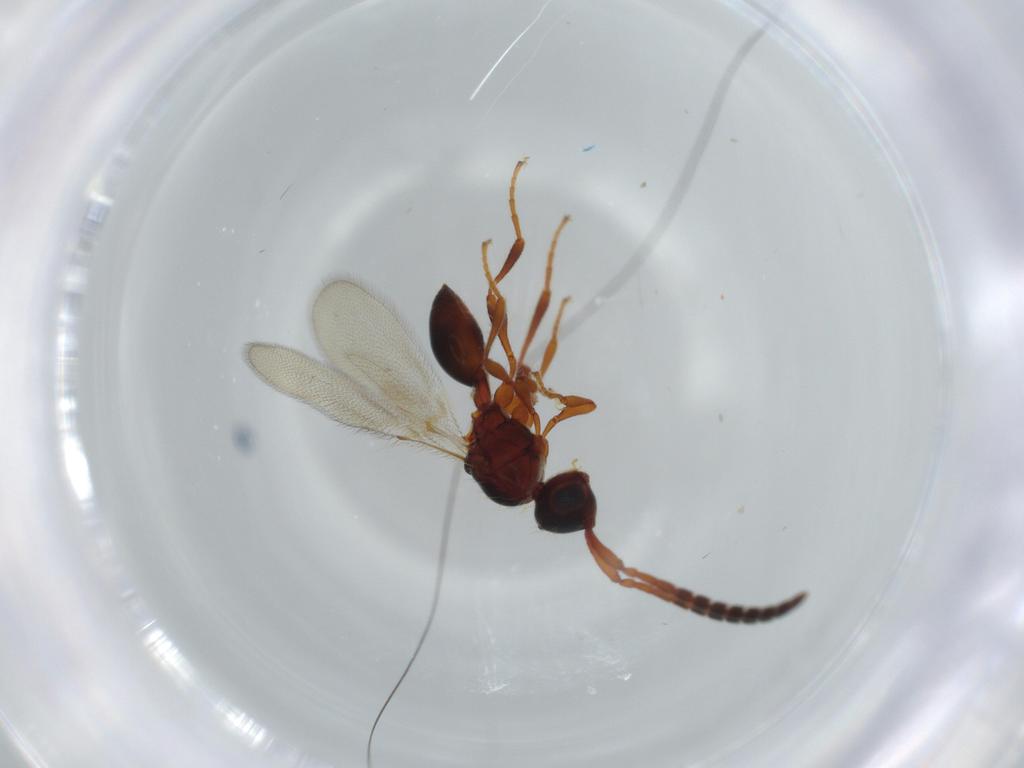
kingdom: Animalia
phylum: Arthropoda
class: Insecta
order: Hymenoptera
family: Diapriidae
